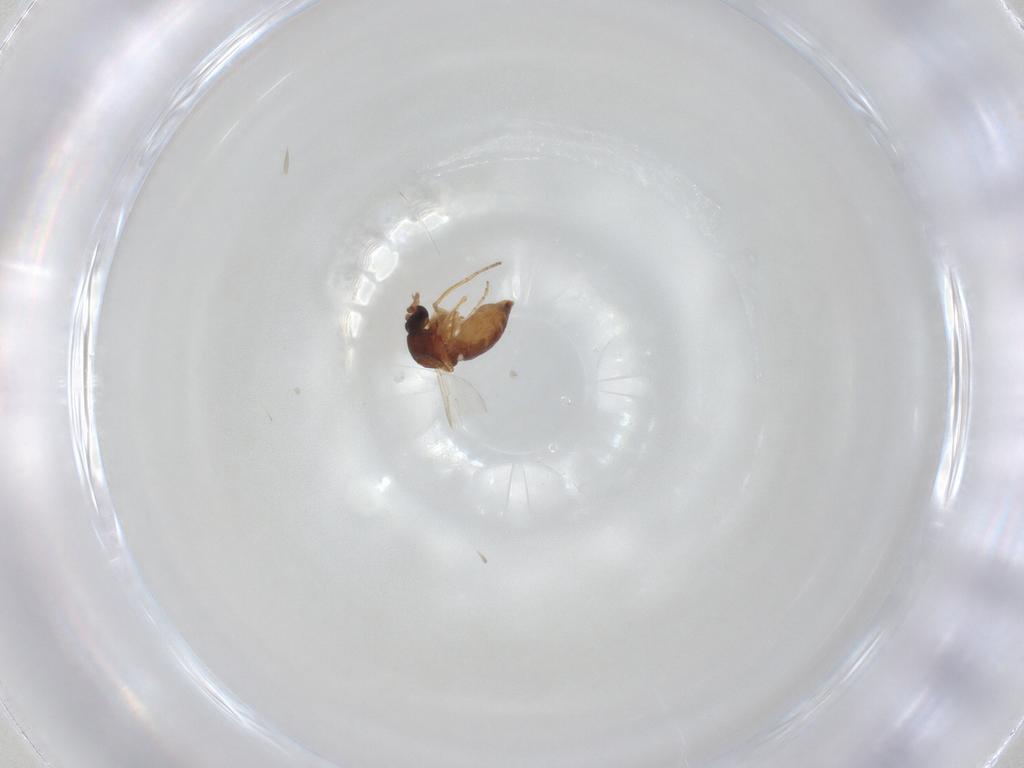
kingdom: Animalia
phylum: Arthropoda
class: Insecta
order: Diptera
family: Ceratopogonidae
